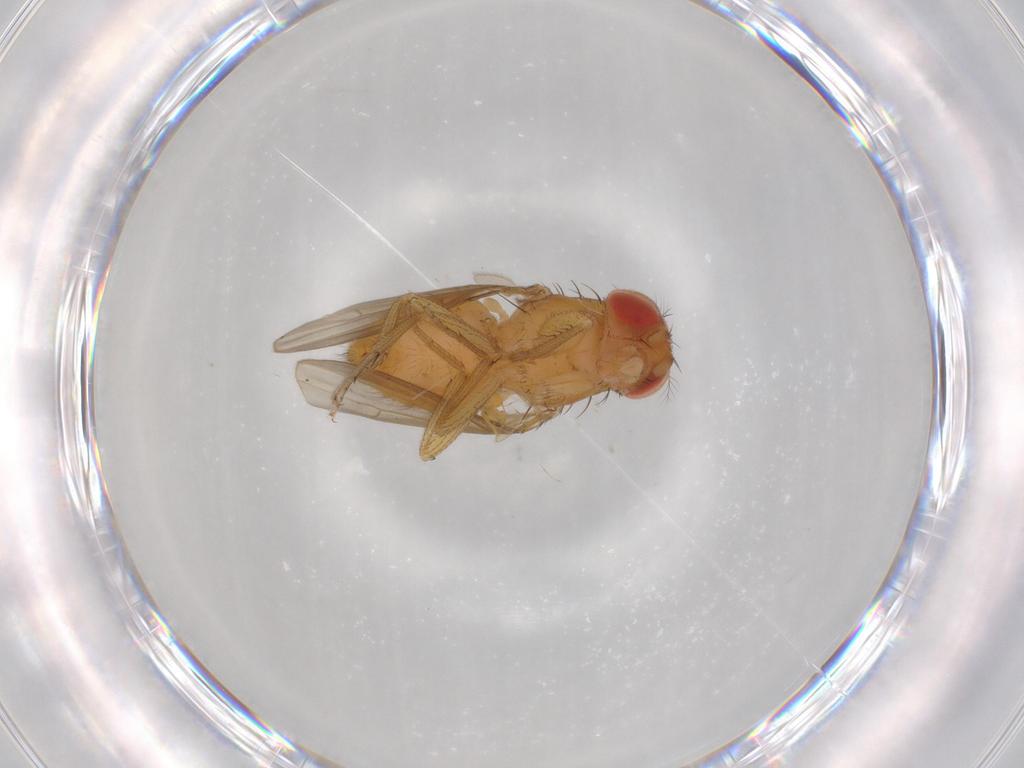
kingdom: Animalia
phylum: Arthropoda
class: Insecta
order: Diptera
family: Drosophilidae
